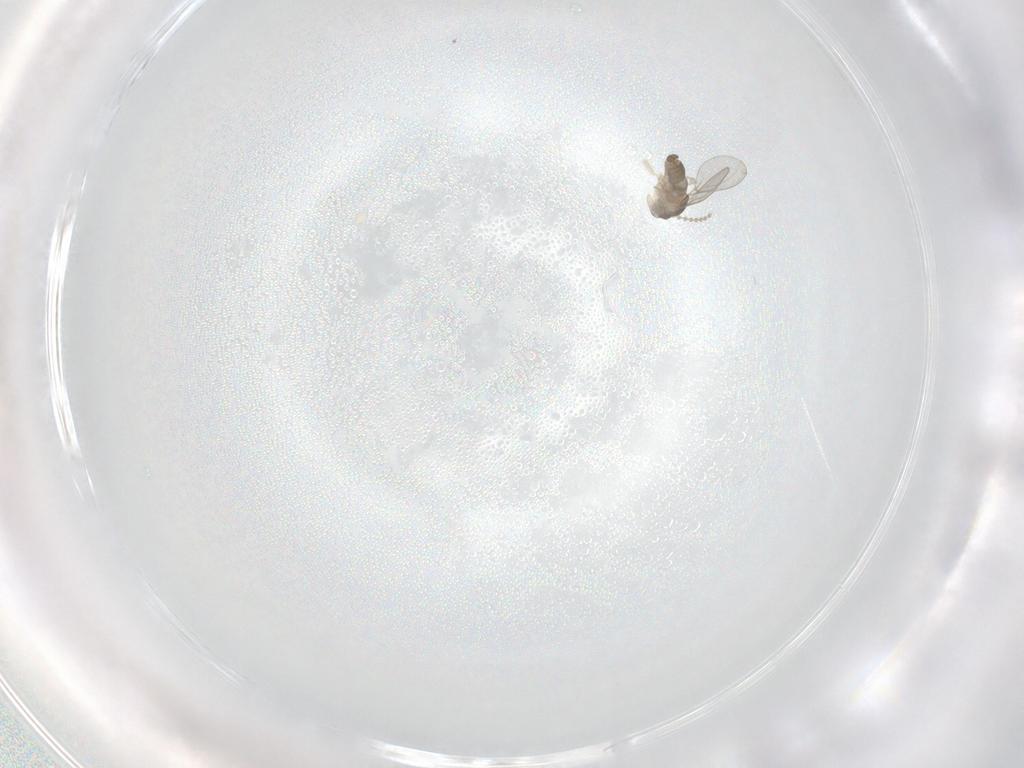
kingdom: Animalia
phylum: Arthropoda
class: Insecta
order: Diptera
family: Cecidomyiidae
